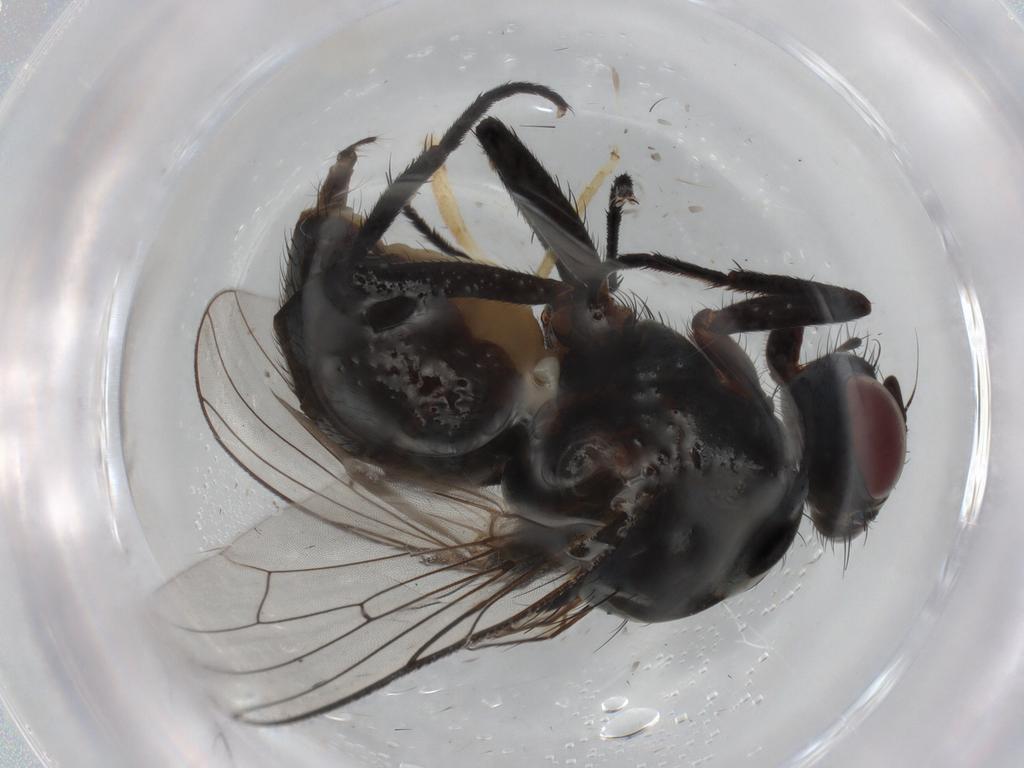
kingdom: Animalia
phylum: Arthropoda
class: Insecta
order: Diptera
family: Anthomyiidae
